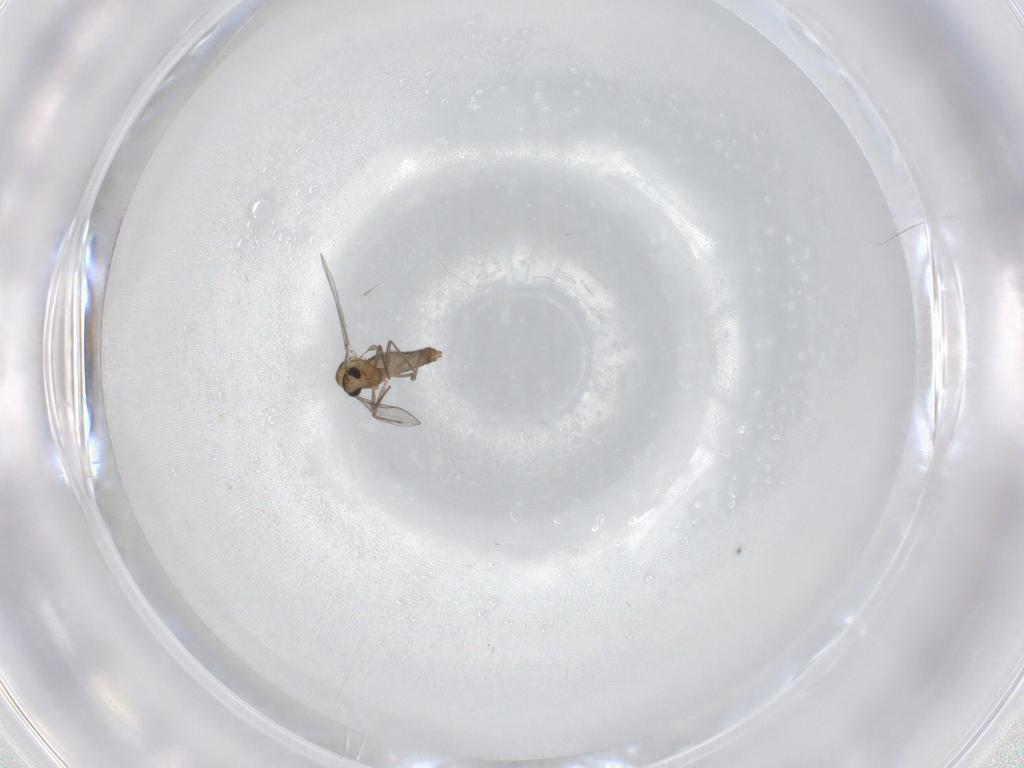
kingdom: Animalia
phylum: Arthropoda
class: Insecta
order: Diptera
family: Chironomidae
